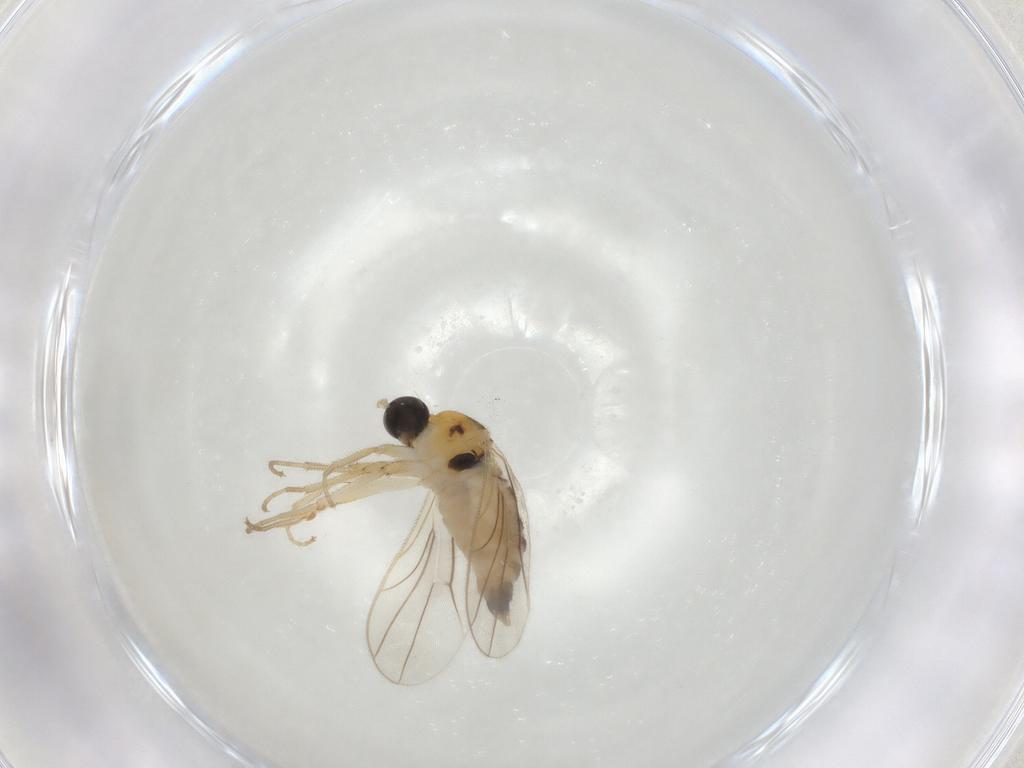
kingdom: Animalia
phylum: Arthropoda
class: Insecta
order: Diptera
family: Hybotidae
